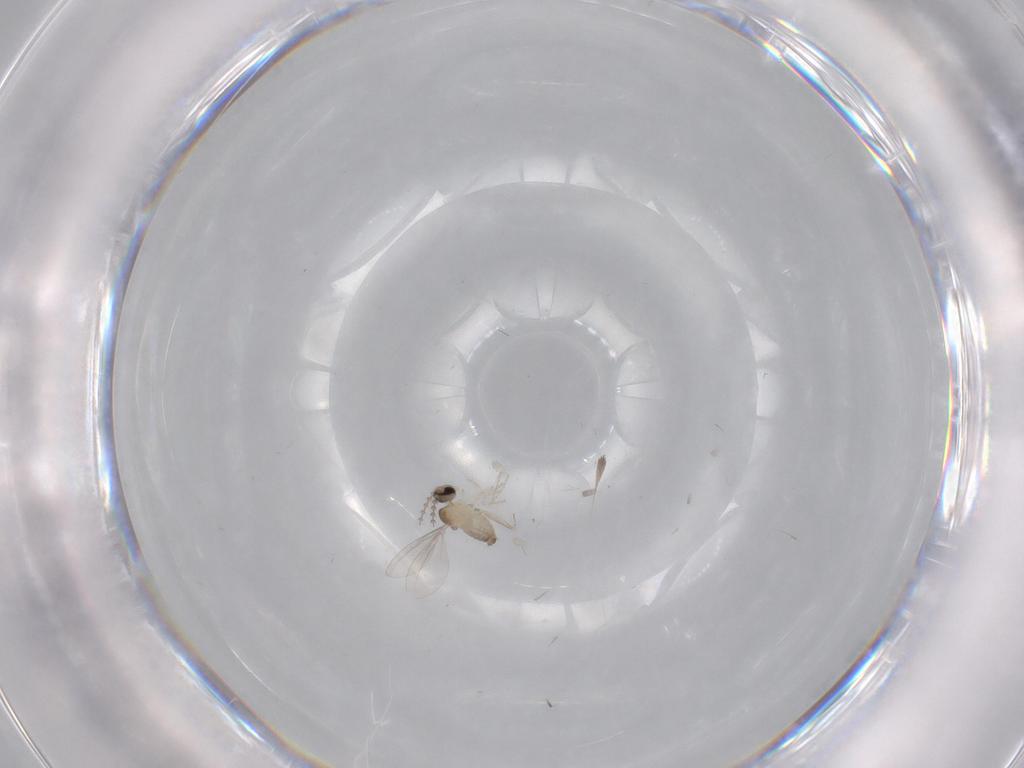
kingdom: Animalia
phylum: Arthropoda
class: Insecta
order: Diptera
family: Cecidomyiidae
